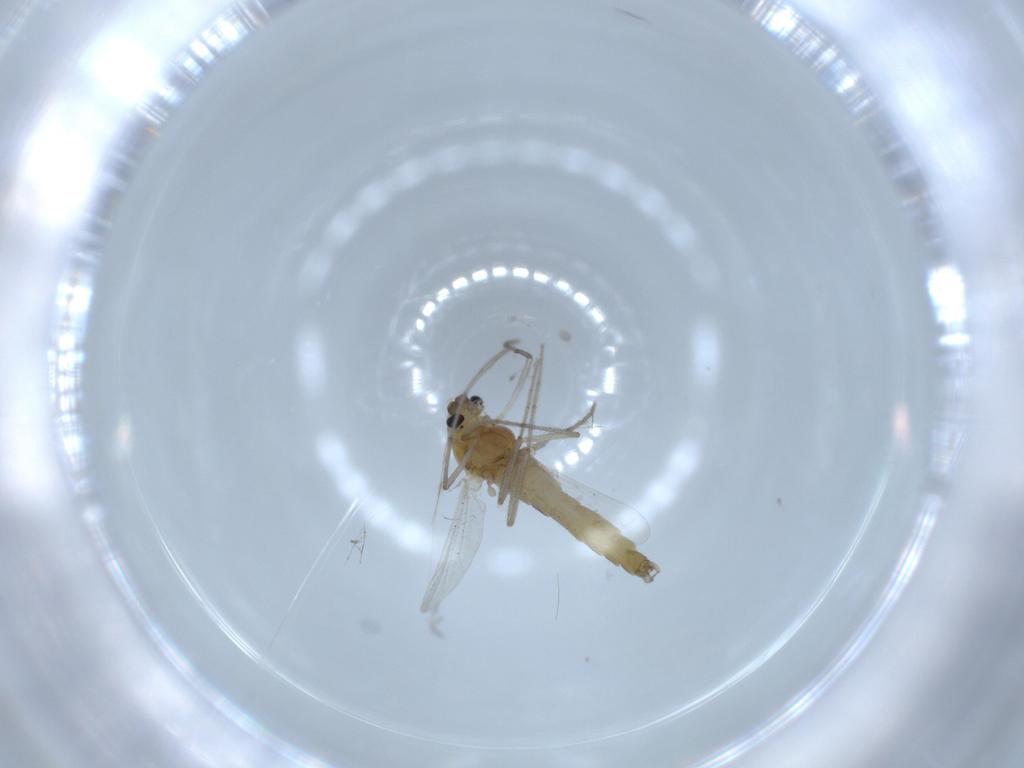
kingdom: Animalia
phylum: Arthropoda
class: Insecta
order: Diptera
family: Chironomidae
